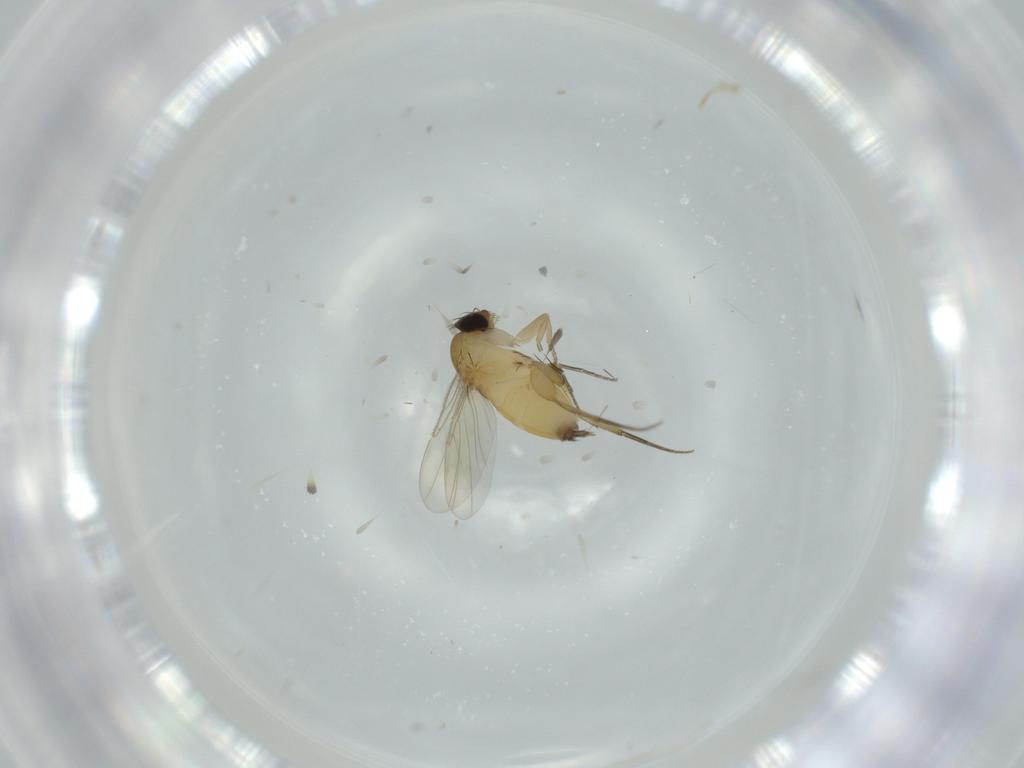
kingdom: Animalia
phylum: Arthropoda
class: Insecta
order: Diptera
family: Phoridae
